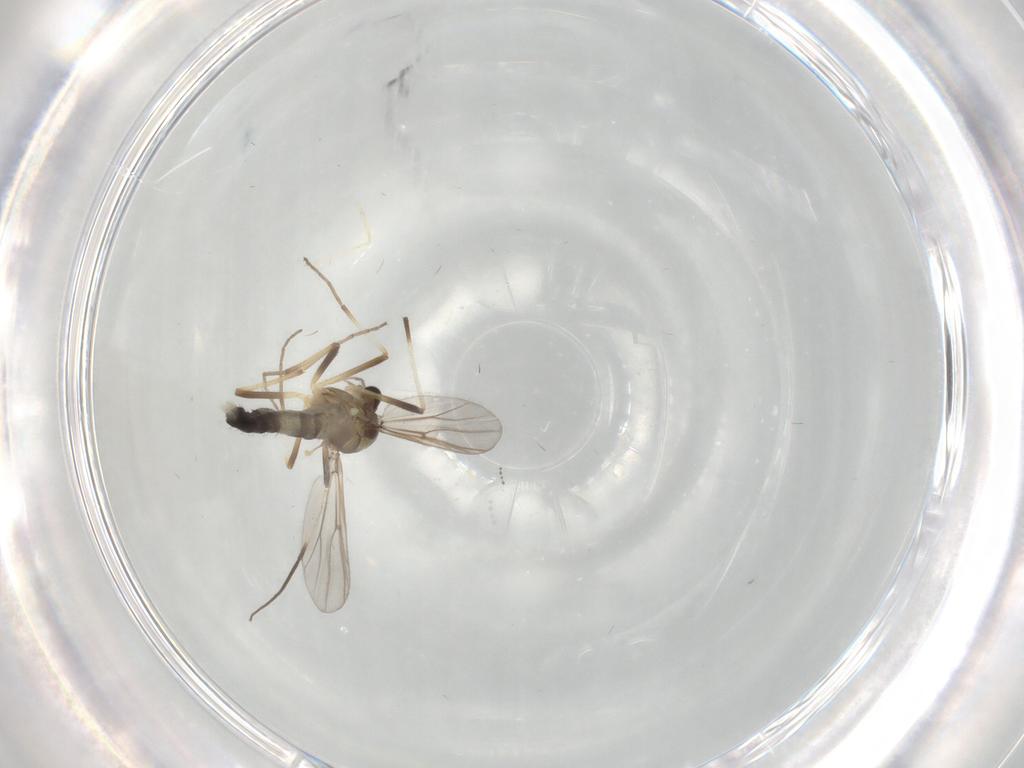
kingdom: Animalia
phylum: Arthropoda
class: Insecta
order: Diptera
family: Chironomidae
